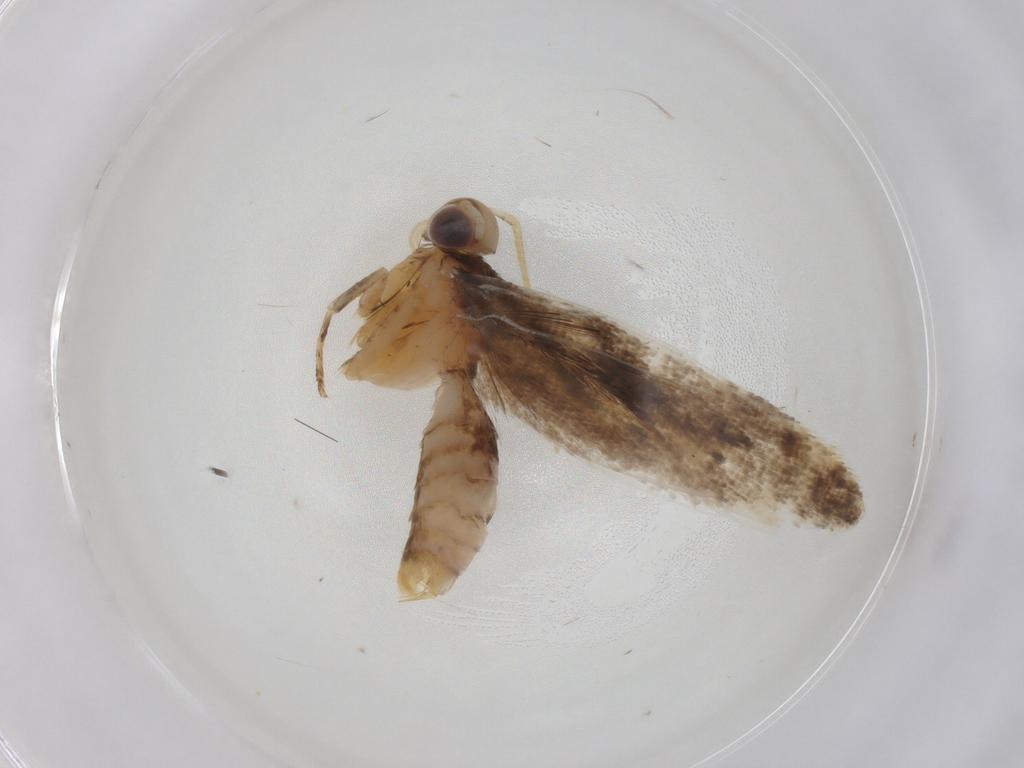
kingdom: Animalia
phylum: Arthropoda
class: Insecta
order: Lepidoptera
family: Gelechiidae
